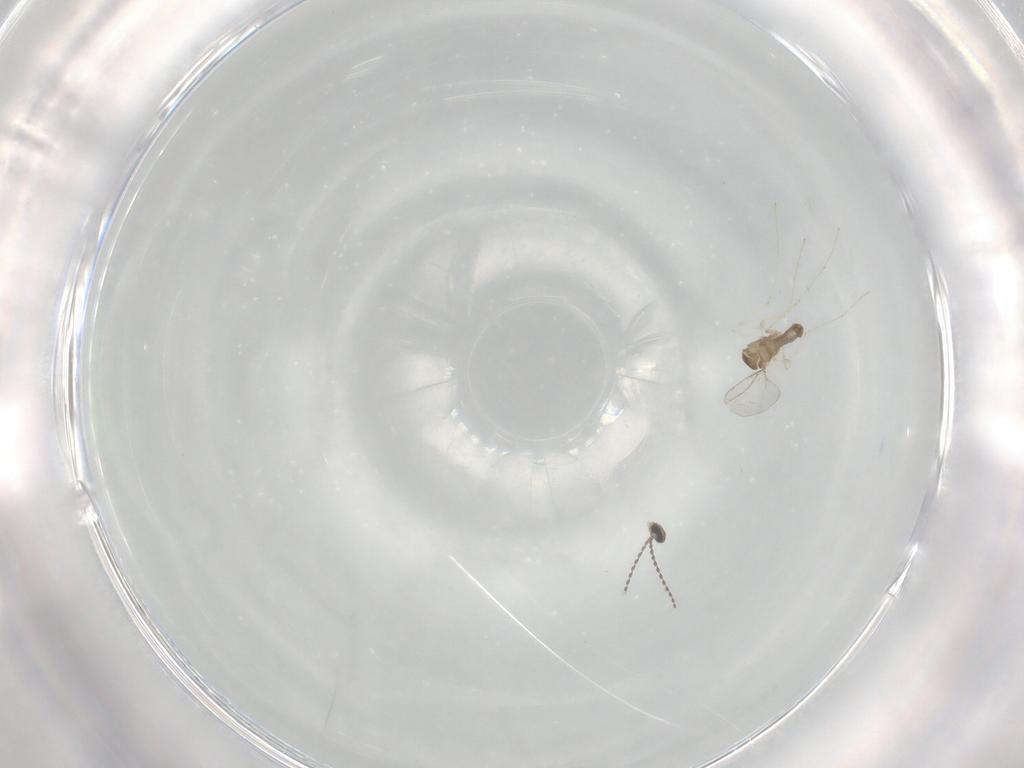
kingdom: Animalia
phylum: Arthropoda
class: Insecta
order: Diptera
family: Cecidomyiidae
